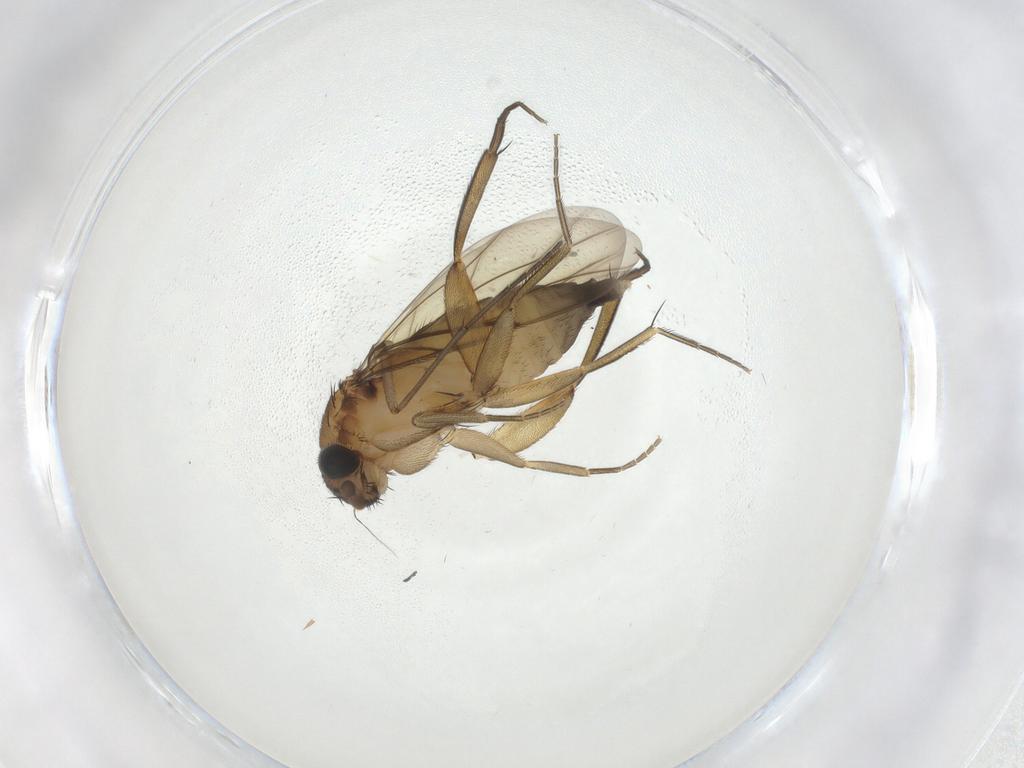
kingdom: Animalia
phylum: Arthropoda
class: Insecta
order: Diptera
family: Phoridae
